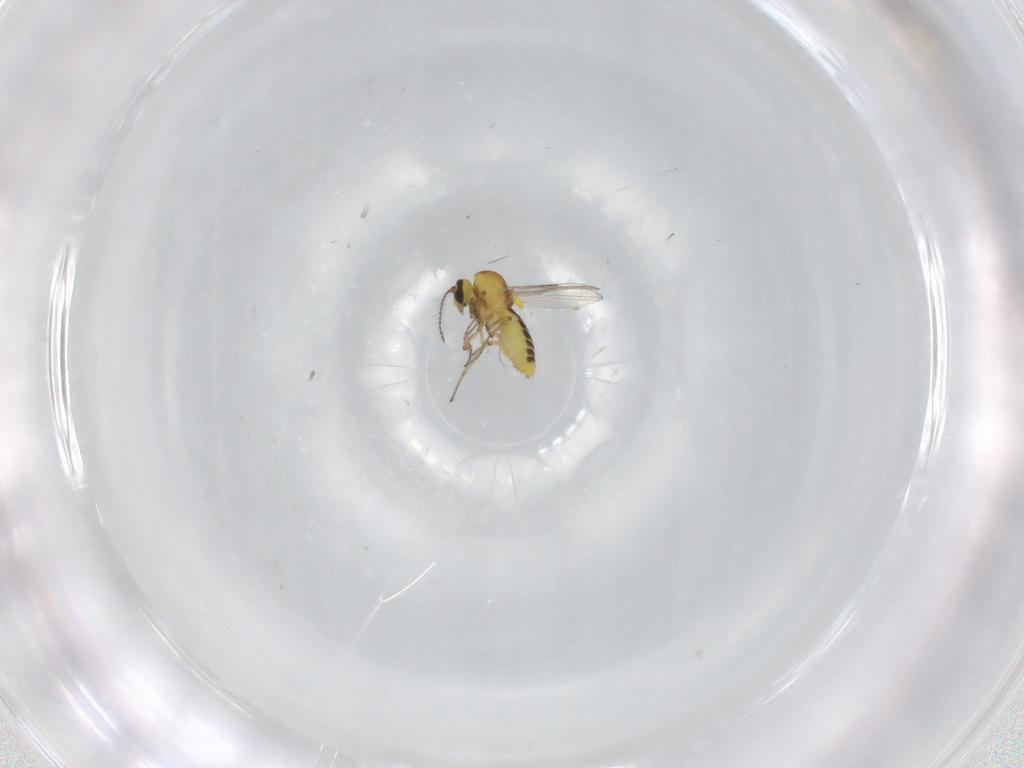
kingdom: Animalia
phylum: Arthropoda
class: Insecta
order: Diptera
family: Ceratopogonidae
